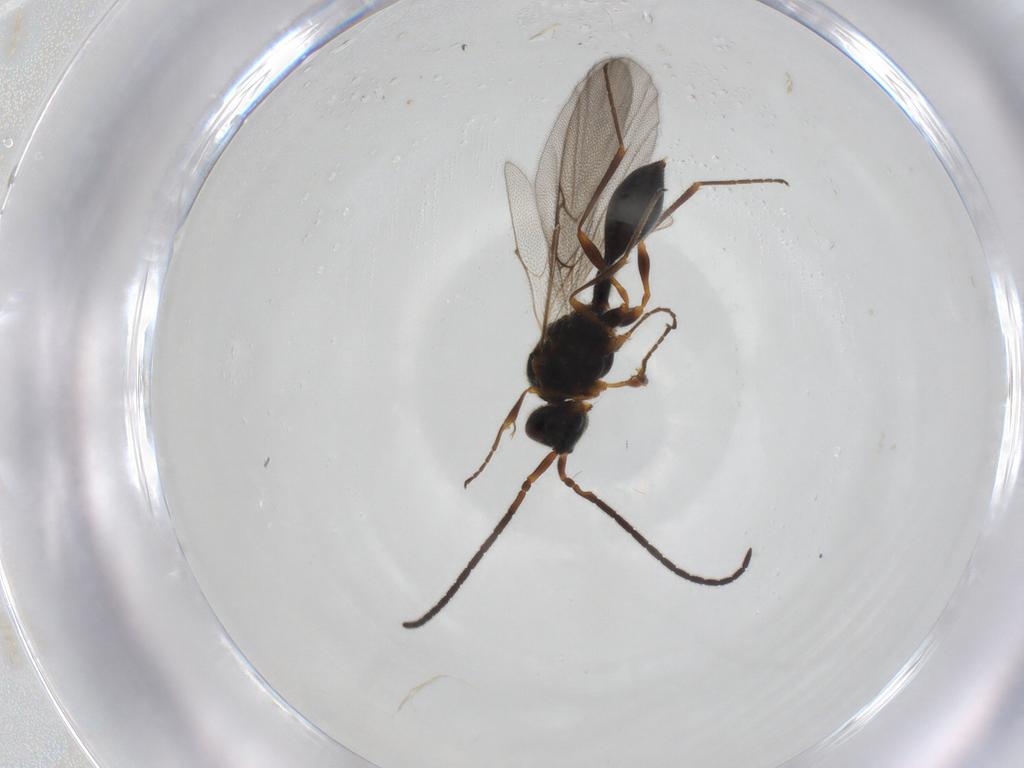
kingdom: Animalia
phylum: Arthropoda
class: Insecta
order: Hymenoptera
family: Diapriidae
